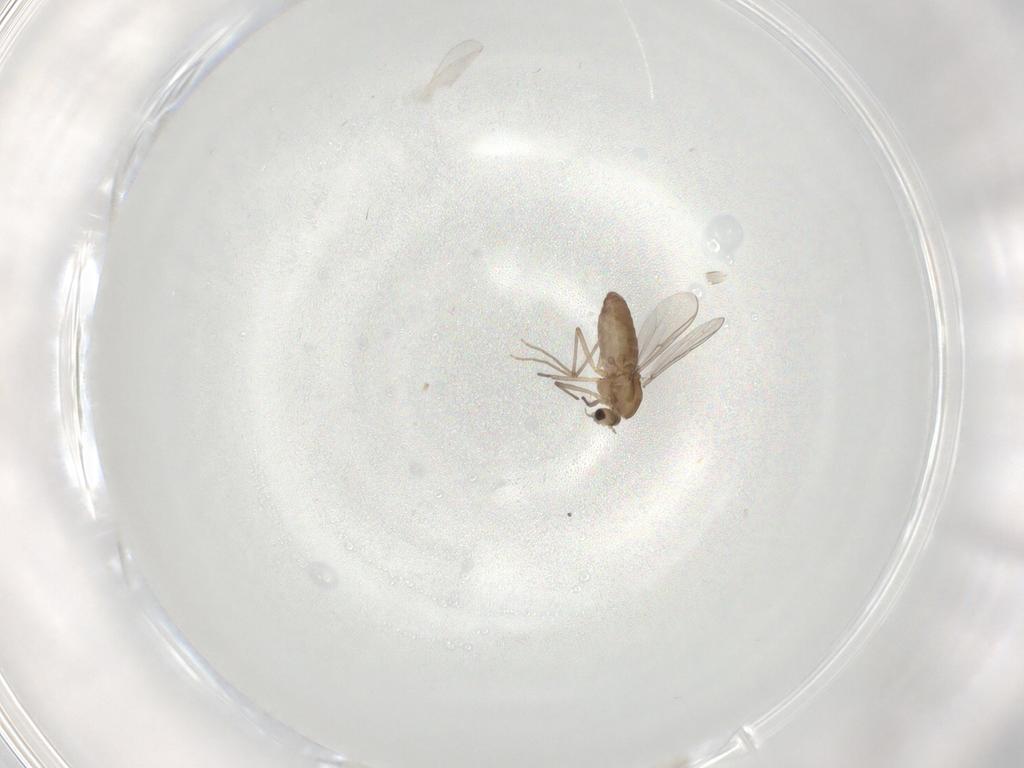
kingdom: Animalia
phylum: Arthropoda
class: Insecta
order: Diptera
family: Chironomidae
